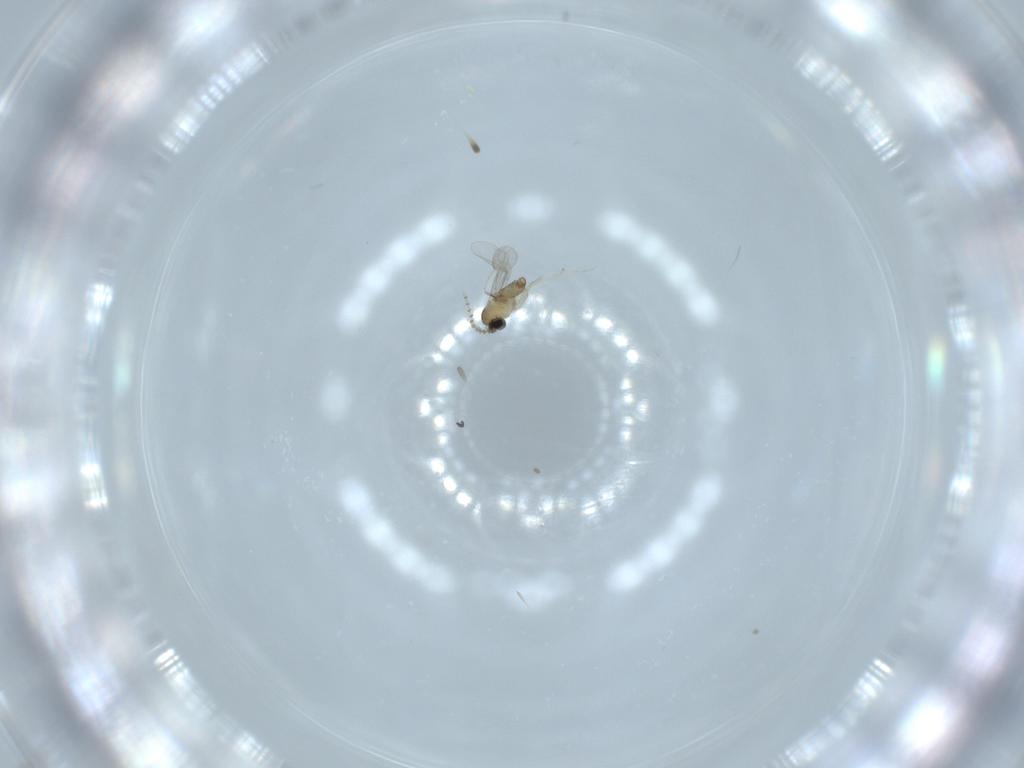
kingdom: Animalia
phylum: Arthropoda
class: Insecta
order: Diptera
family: Cecidomyiidae
